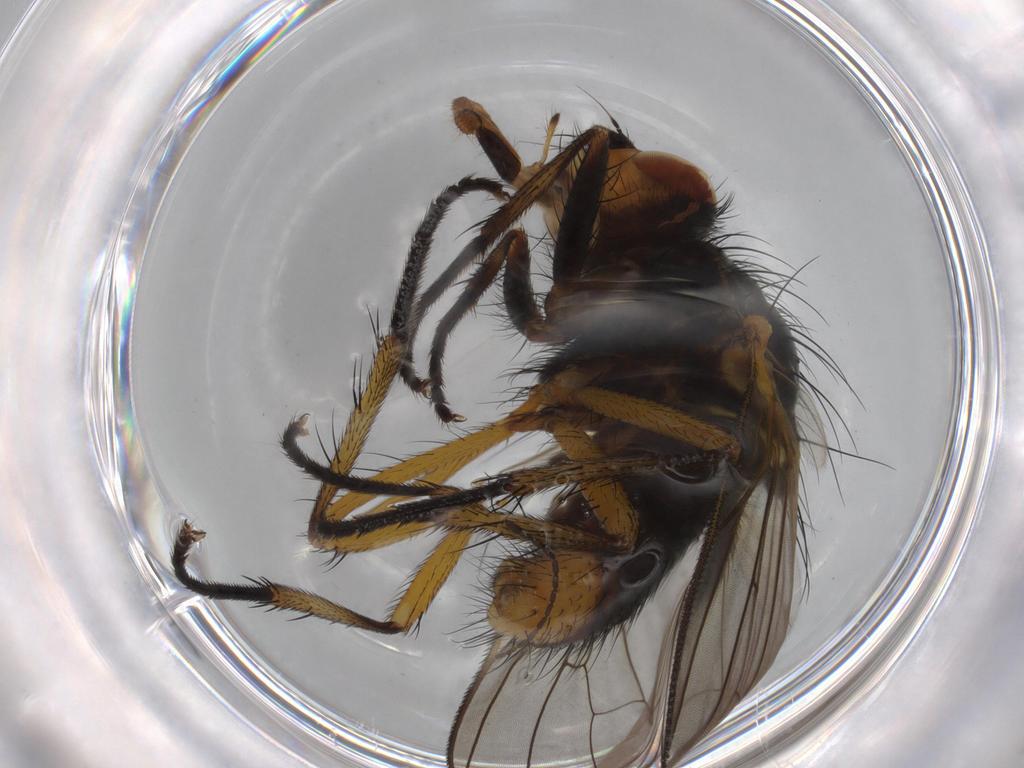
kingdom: Animalia
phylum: Arthropoda
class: Insecta
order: Diptera
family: Anthomyiidae
